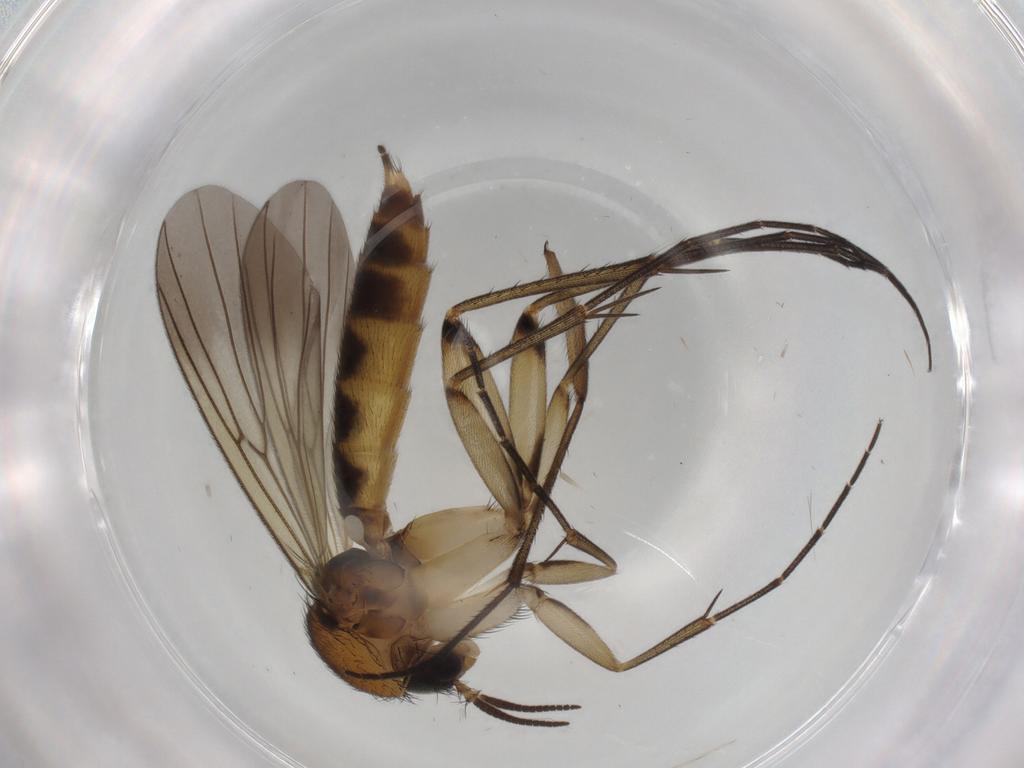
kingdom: Animalia
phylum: Arthropoda
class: Insecta
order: Diptera
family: Mycetophilidae
